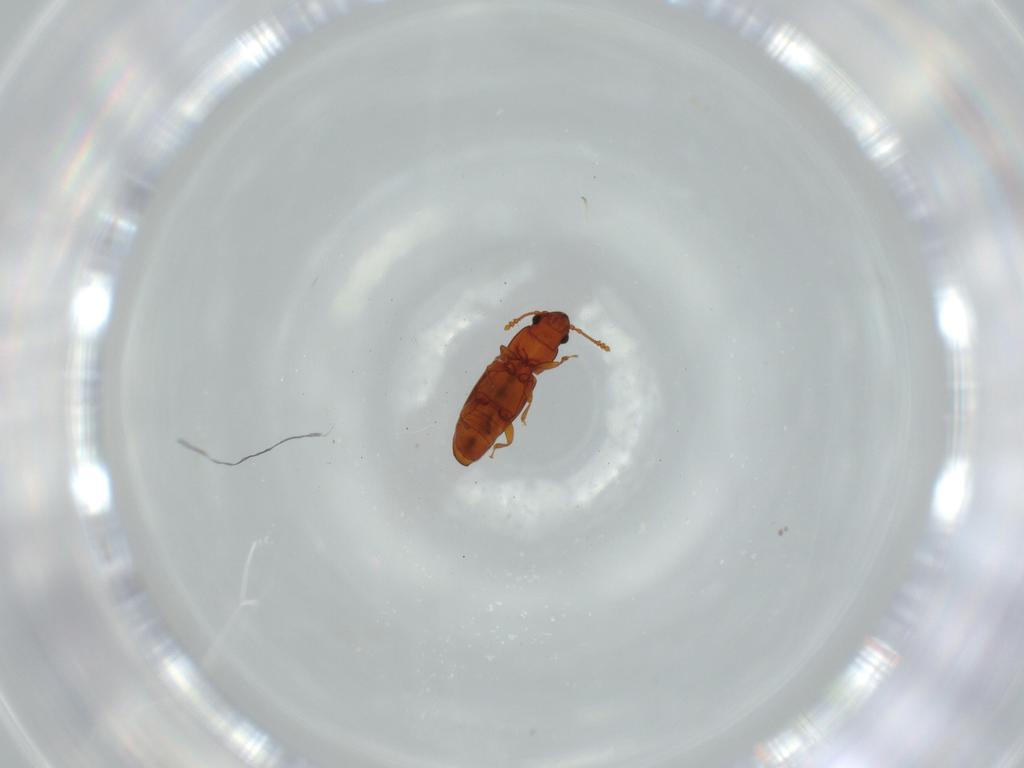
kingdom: Animalia
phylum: Arthropoda
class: Insecta
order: Coleoptera
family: Smicripidae
